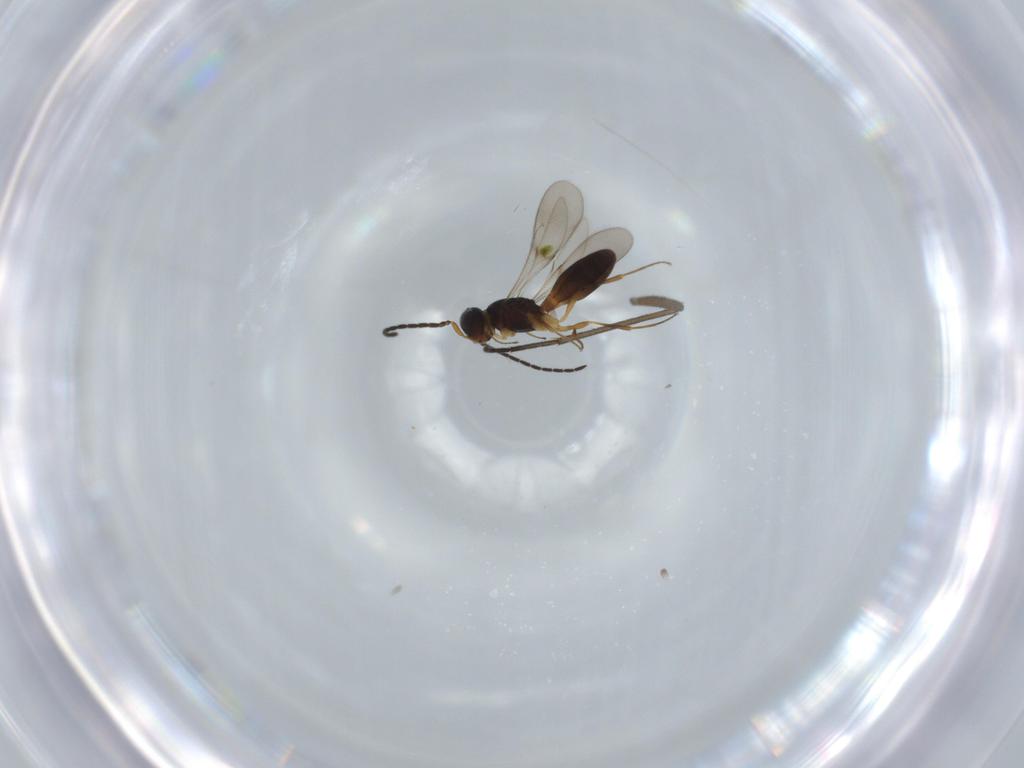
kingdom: Animalia
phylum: Arthropoda
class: Insecta
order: Hymenoptera
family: Scelionidae
